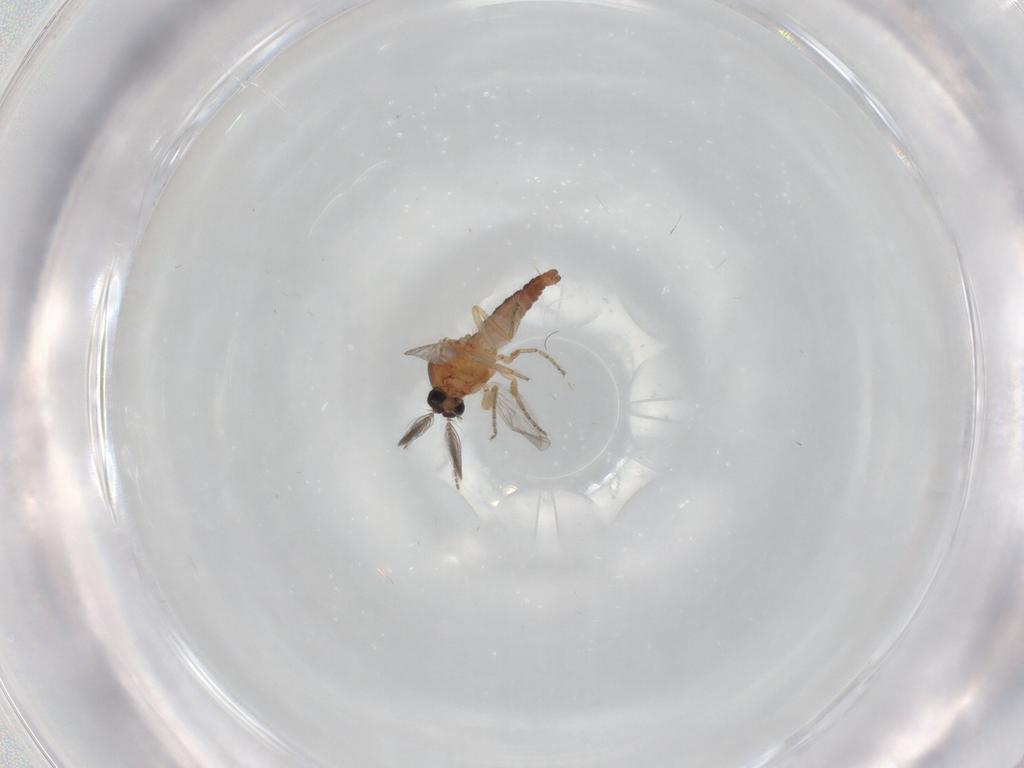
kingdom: Animalia
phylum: Arthropoda
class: Insecta
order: Diptera
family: Ceratopogonidae
